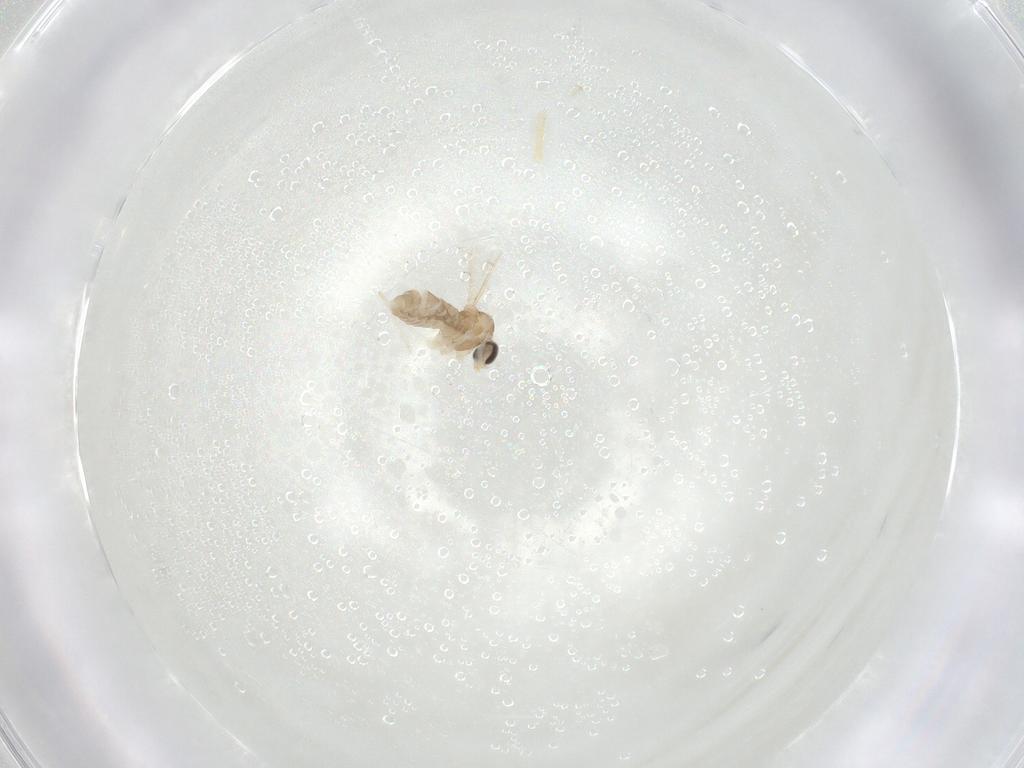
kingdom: Animalia
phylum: Arthropoda
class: Insecta
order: Diptera
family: Cecidomyiidae
